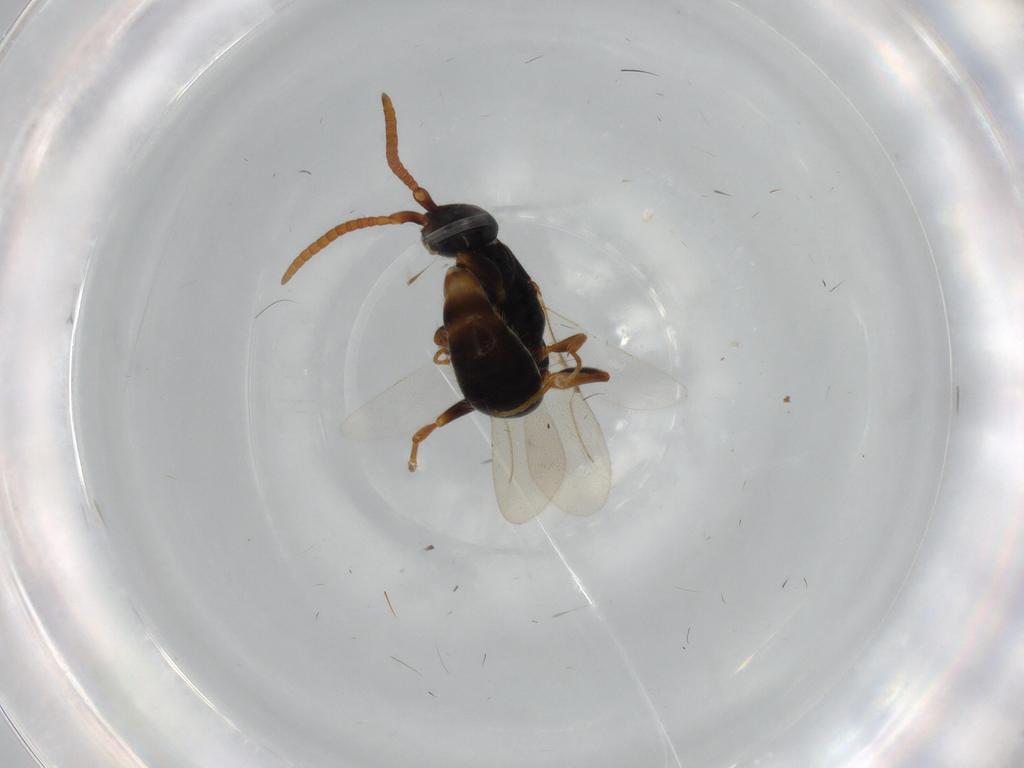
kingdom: Animalia
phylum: Arthropoda
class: Insecta
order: Hymenoptera
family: Bethylidae
